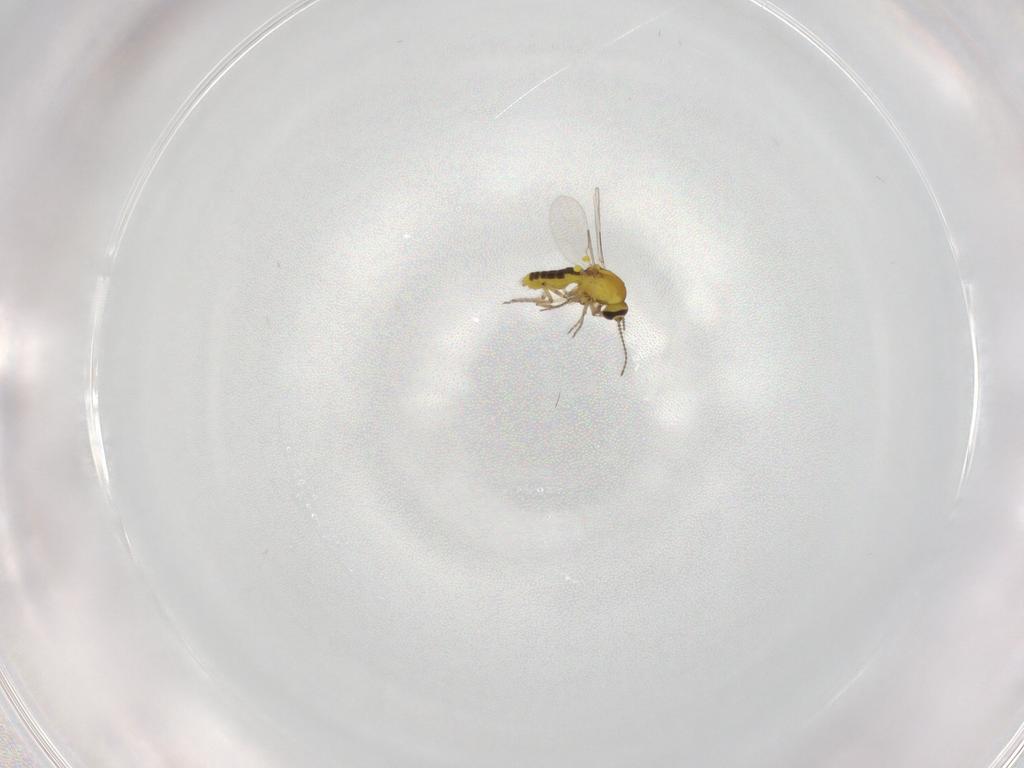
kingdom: Animalia
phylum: Arthropoda
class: Insecta
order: Diptera
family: Ceratopogonidae
